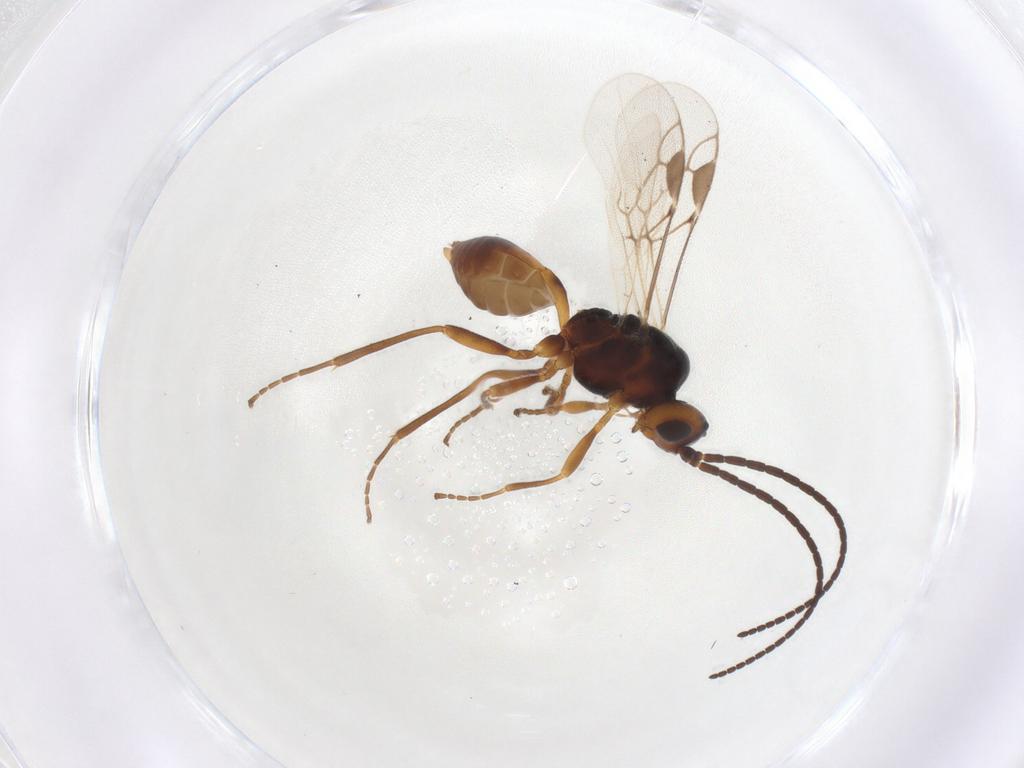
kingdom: Animalia
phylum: Arthropoda
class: Insecta
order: Hymenoptera
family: Braconidae
